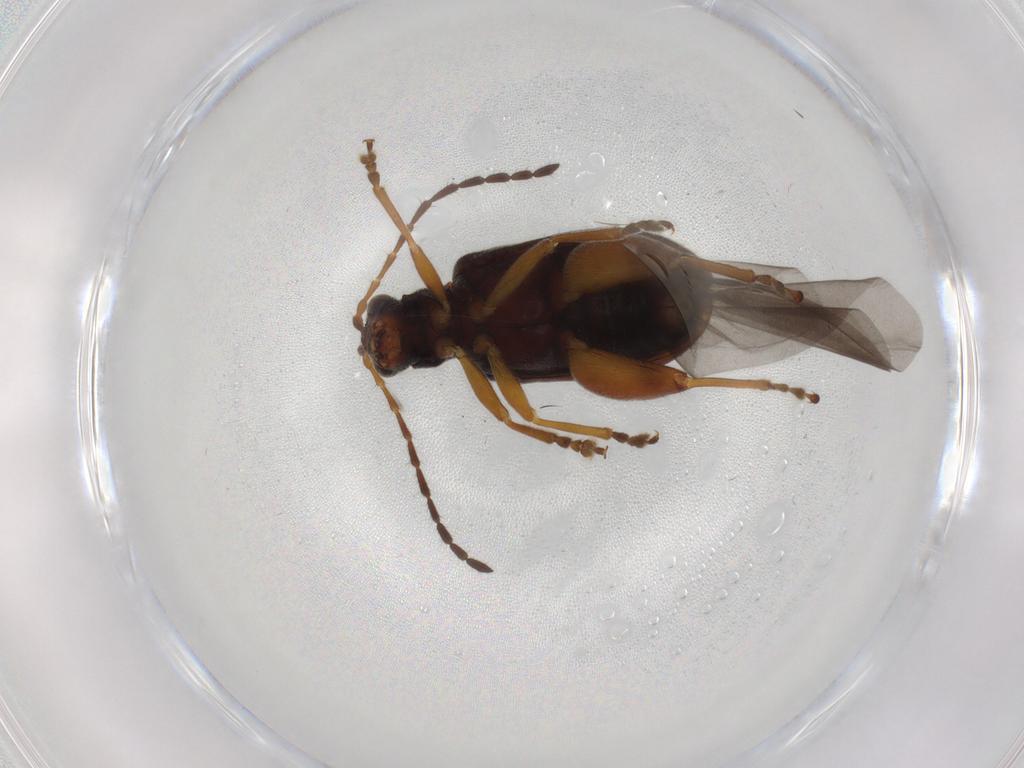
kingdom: Animalia
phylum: Arthropoda
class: Insecta
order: Coleoptera
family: Chrysomelidae
